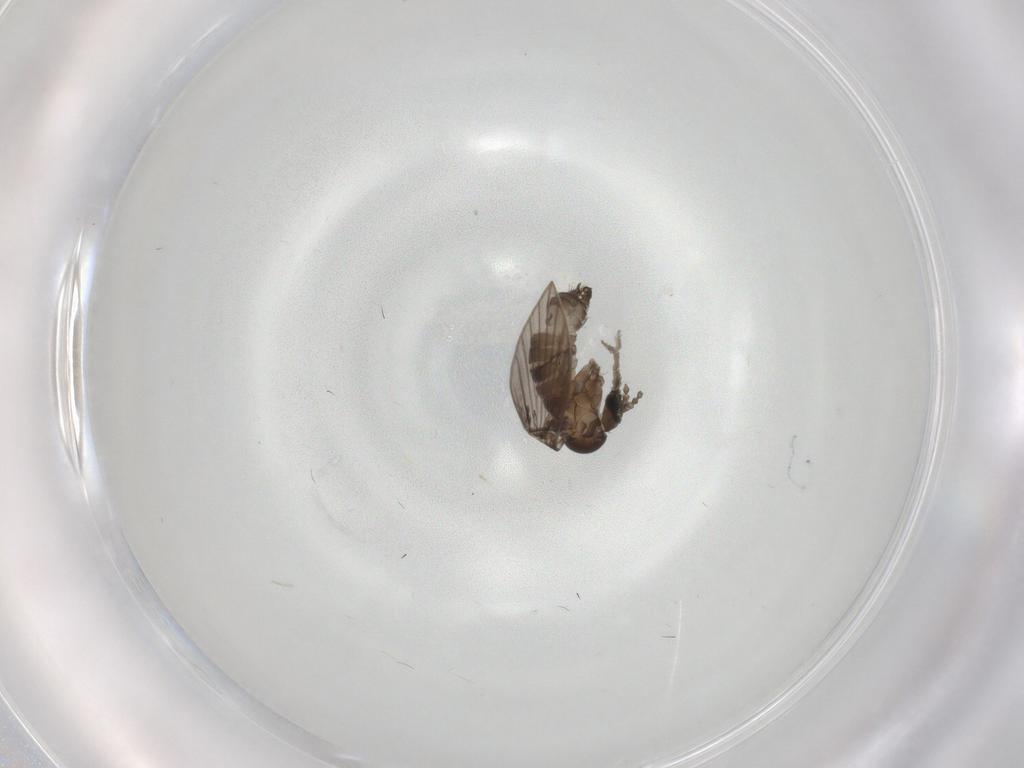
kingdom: Animalia
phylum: Arthropoda
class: Insecta
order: Diptera
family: Psychodidae
